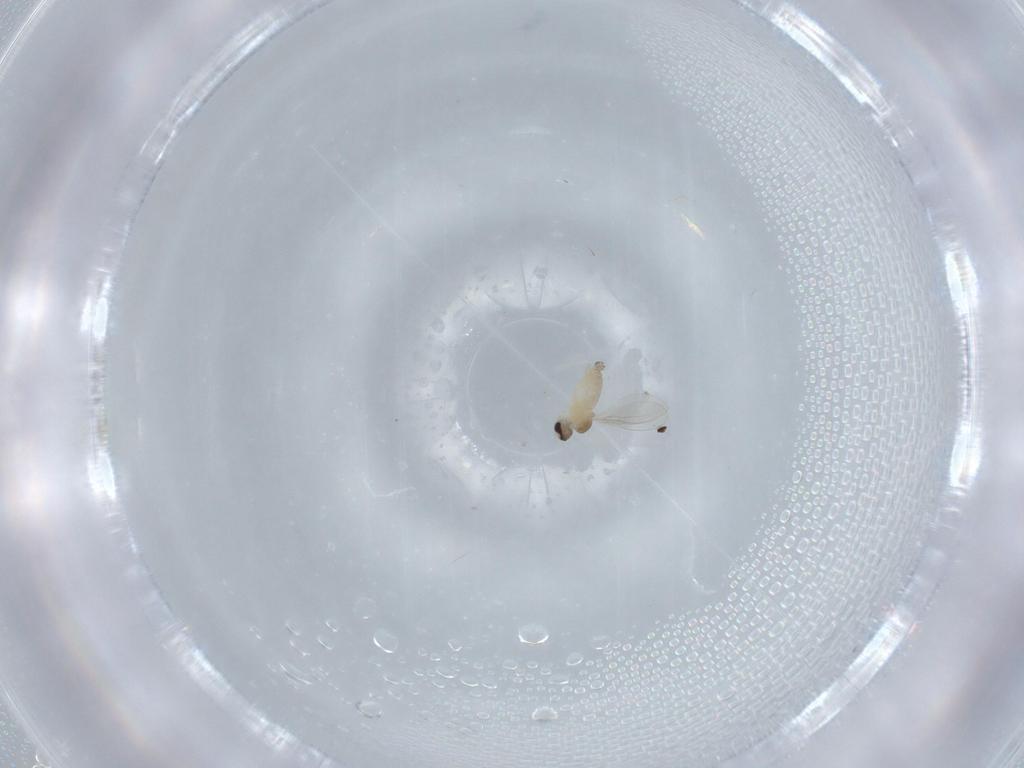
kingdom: Animalia
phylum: Arthropoda
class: Insecta
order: Diptera
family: Cecidomyiidae
